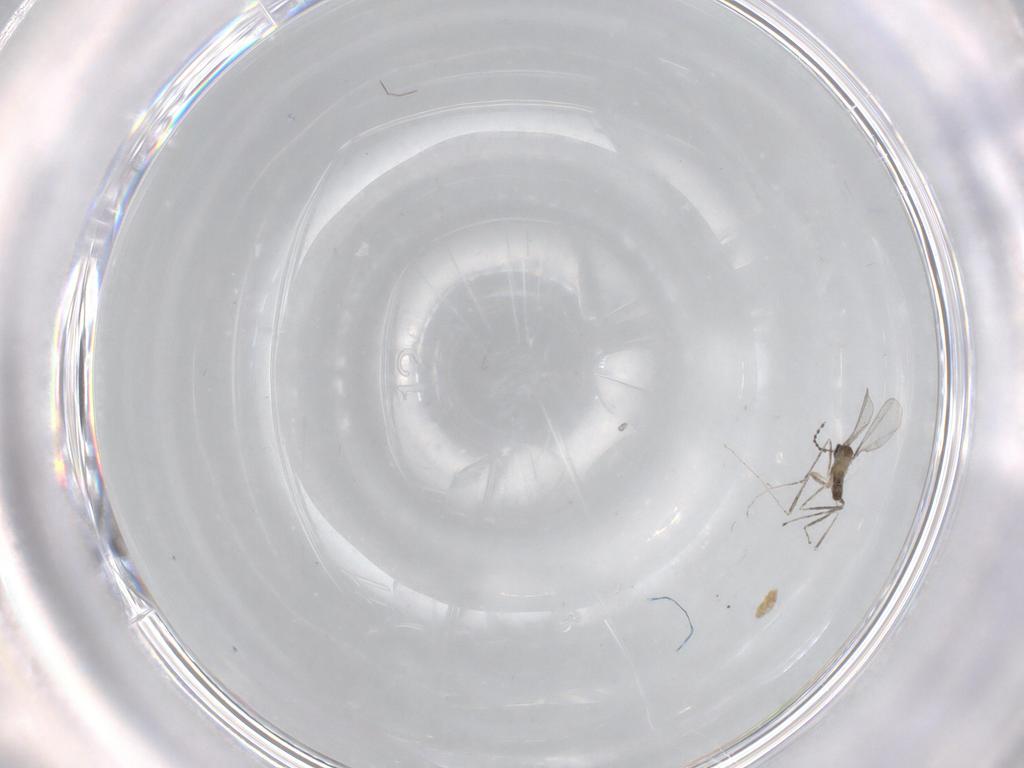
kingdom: Animalia
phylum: Arthropoda
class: Insecta
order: Diptera
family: Cecidomyiidae
